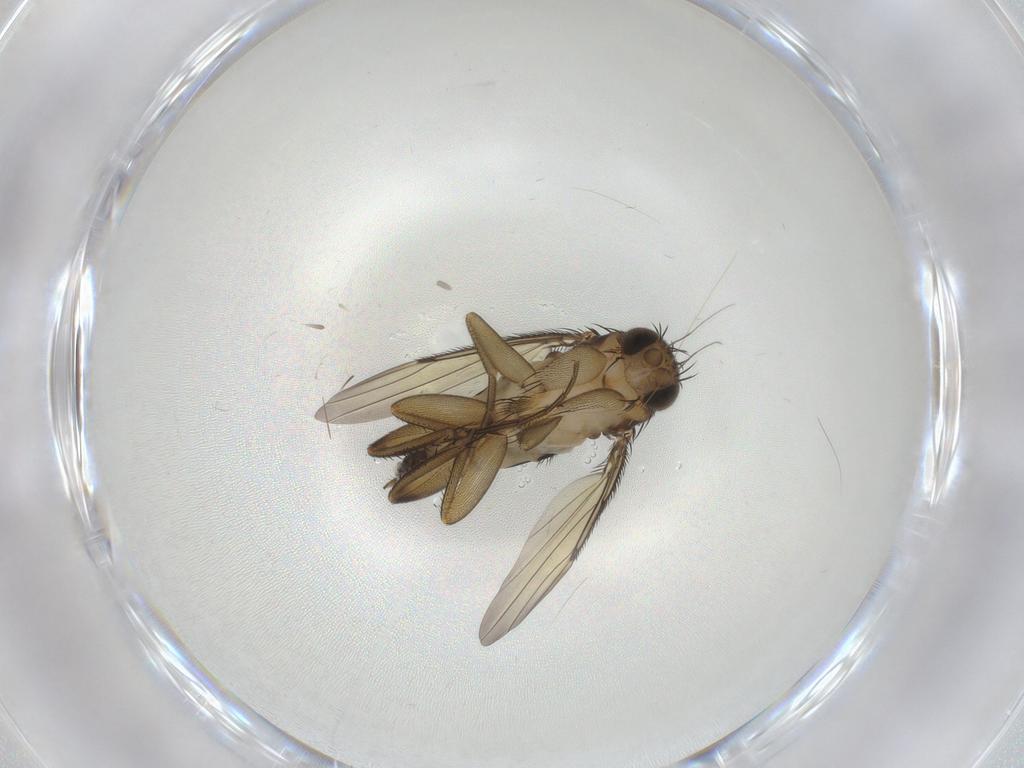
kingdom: Animalia
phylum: Arthropoda
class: Insecta
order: Diptera
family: Phoridae
